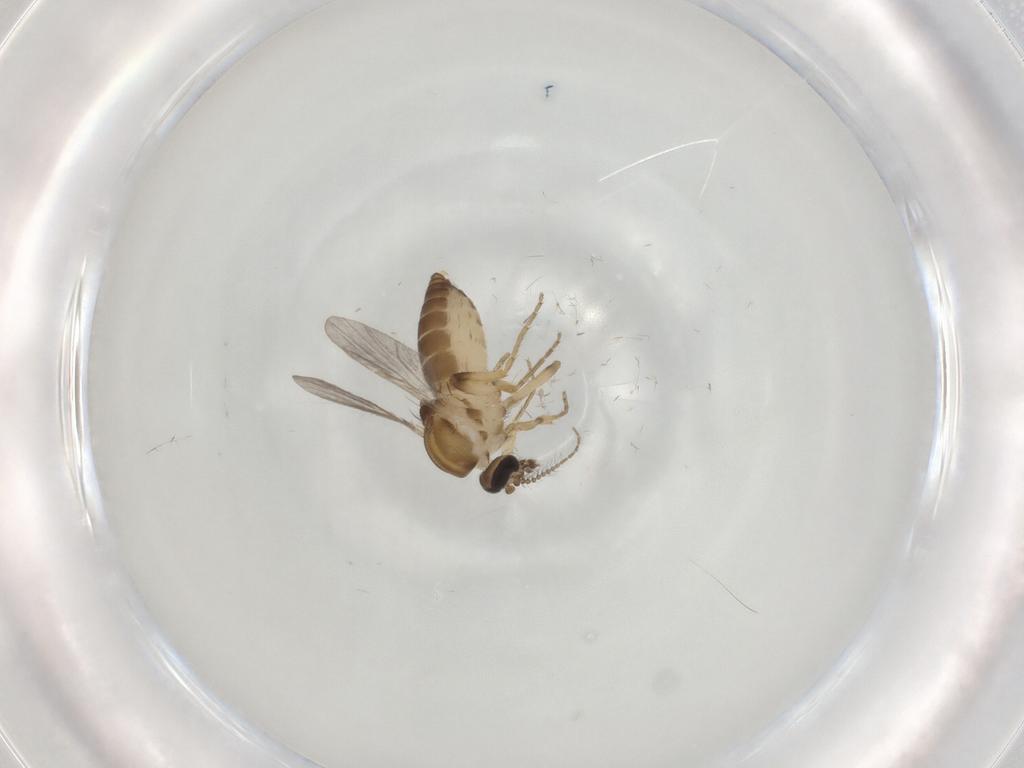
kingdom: Animalia
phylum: Arthropoda
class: Insecta
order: Diptera
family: Ceratopogonidae
